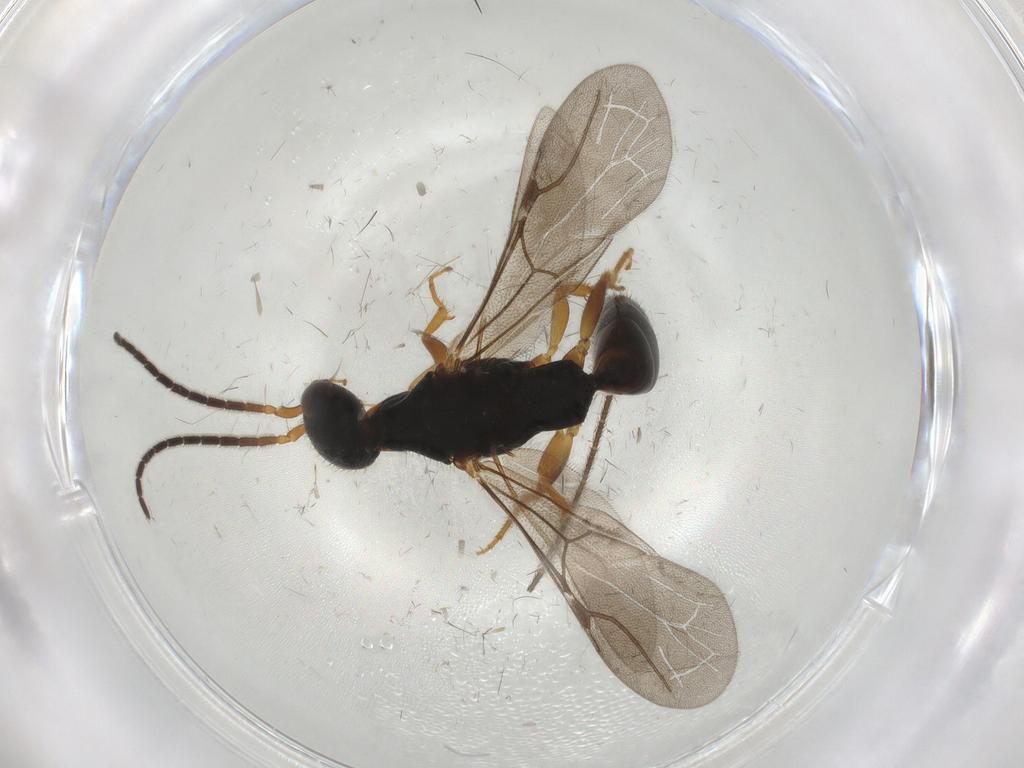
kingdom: Animalia
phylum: Arthropoda
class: Insecta
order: Hymenoptera
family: Bethylidae
